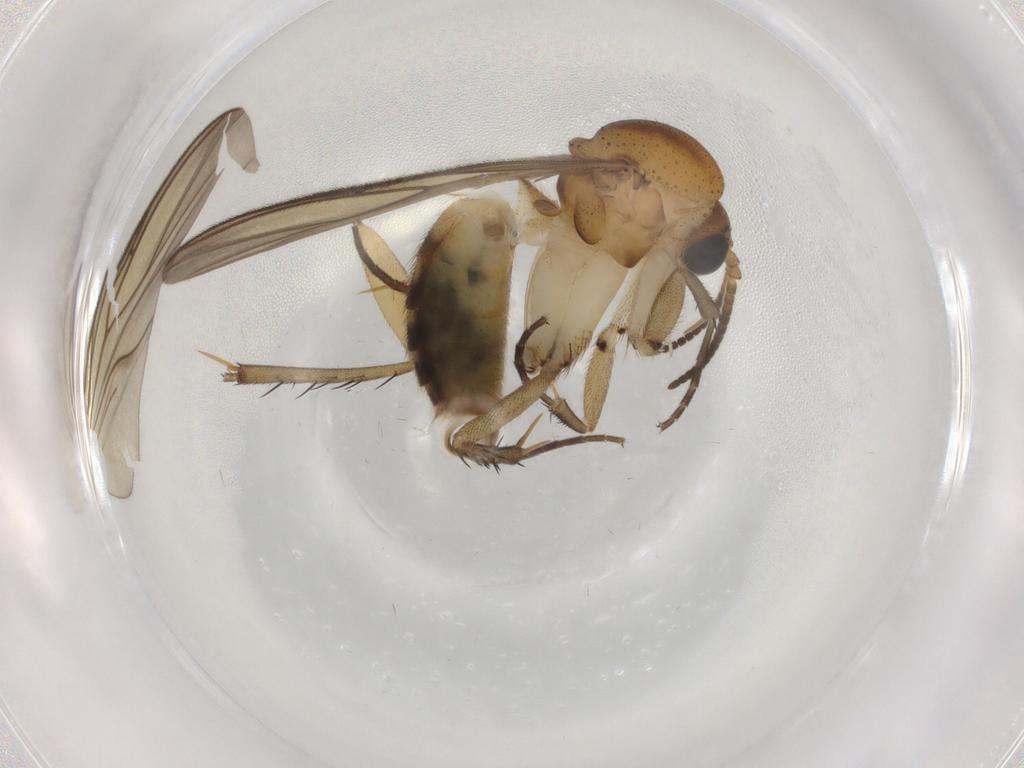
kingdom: Animalia
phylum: Arthropoda
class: Insecta
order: Diptera
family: Mycetophilidae
